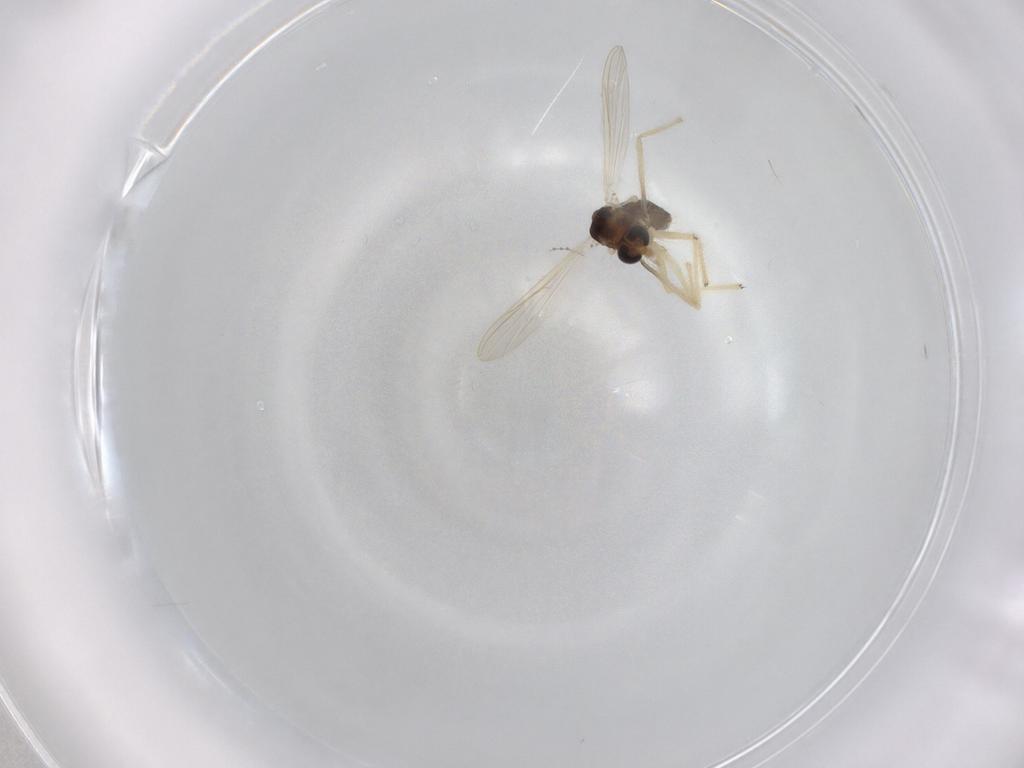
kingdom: Animalia
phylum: Arthropoda
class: Insecta
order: Diptera
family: Chironomidae
